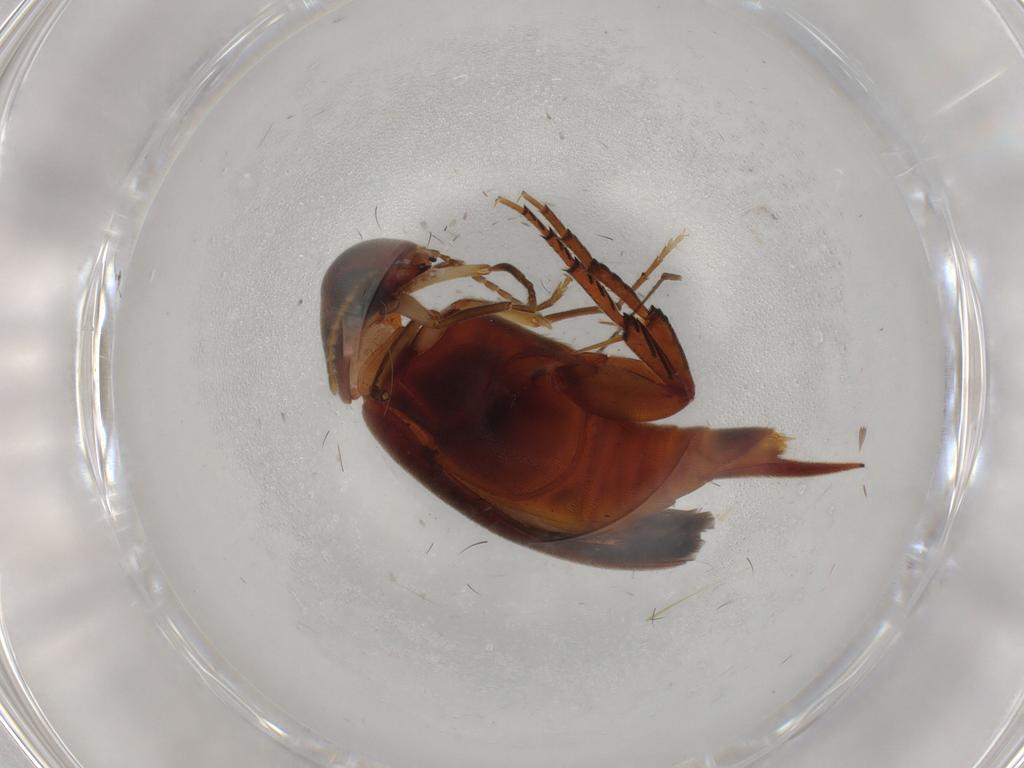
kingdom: Animalia
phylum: Arthropoda
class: Insecta
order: Coleoptera
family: Mordellidae
